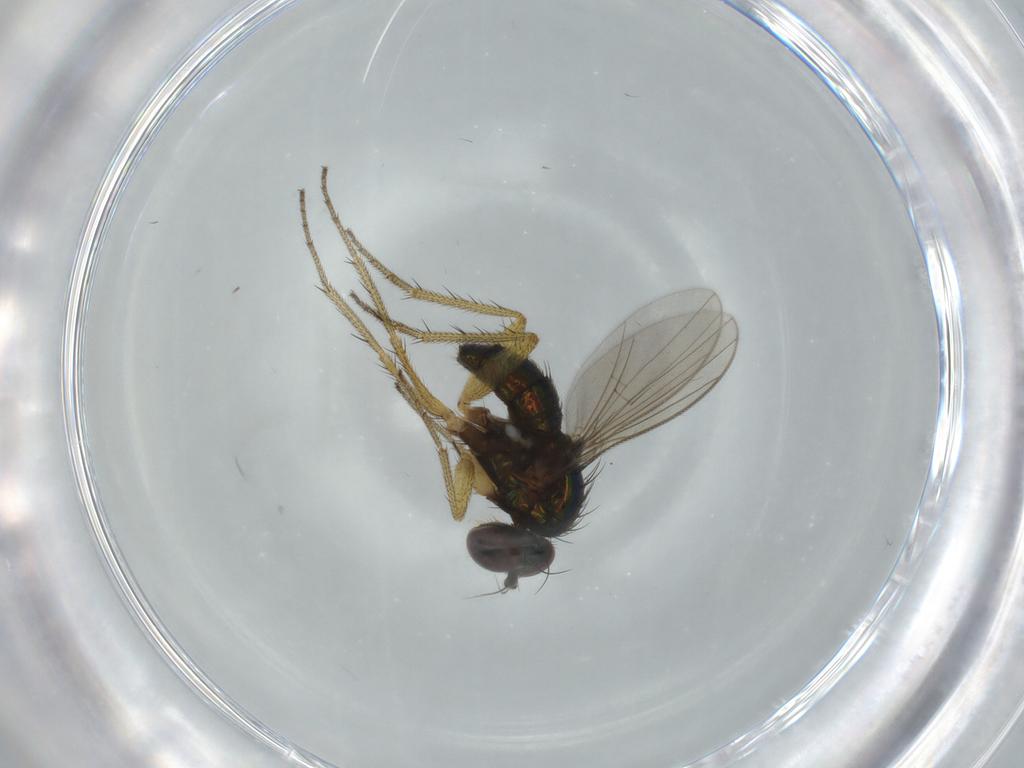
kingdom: Animalia
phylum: Arthropoda
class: Insecta
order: Diptera
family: Dolichopodidae
